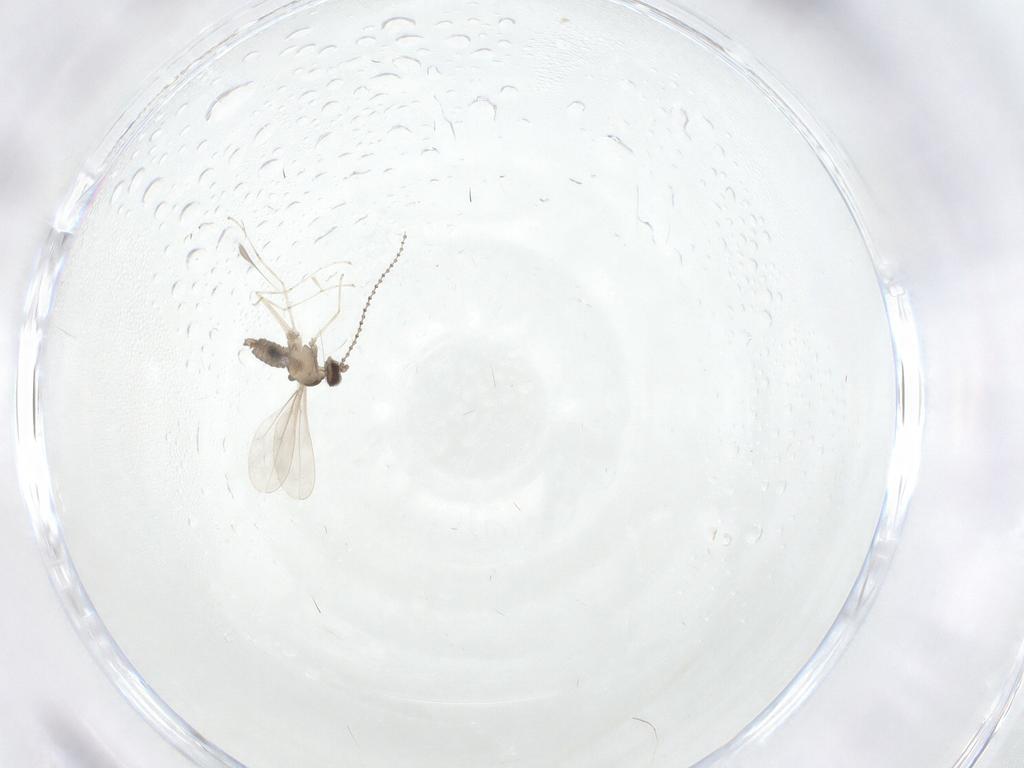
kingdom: Animalia
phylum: Arthropoda
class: Insecta
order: Diptera
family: Cecidomyiidae
